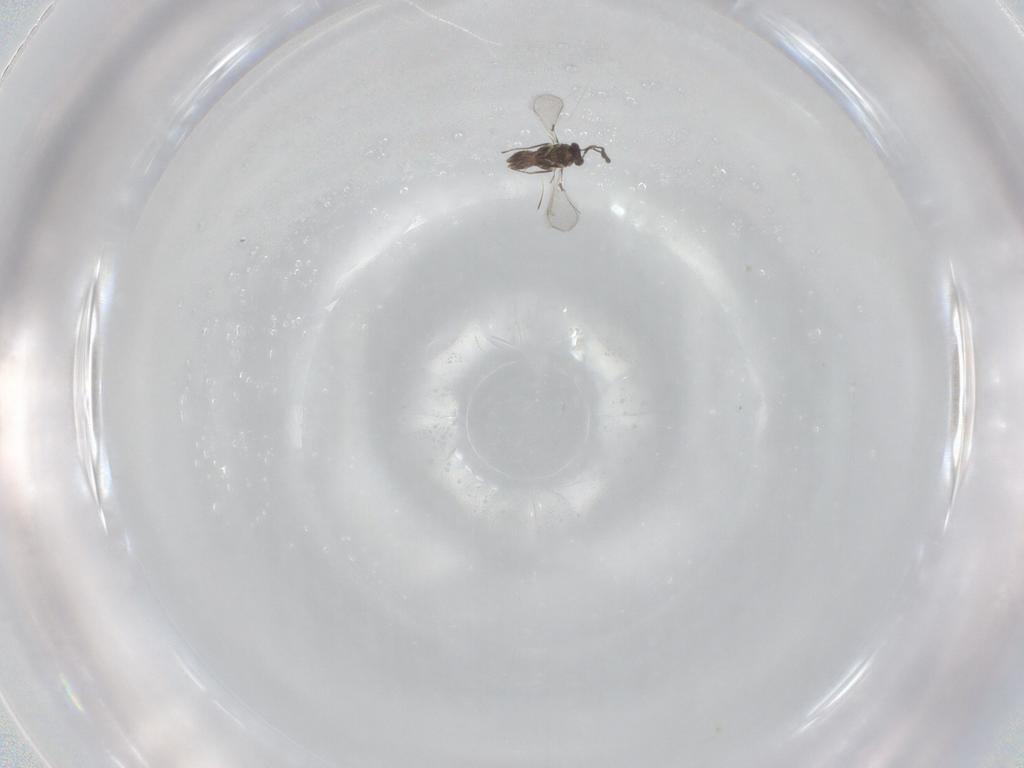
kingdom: Animalia
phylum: Arthropoda
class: Insecta
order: Hymenoptera
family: Mymaridae
